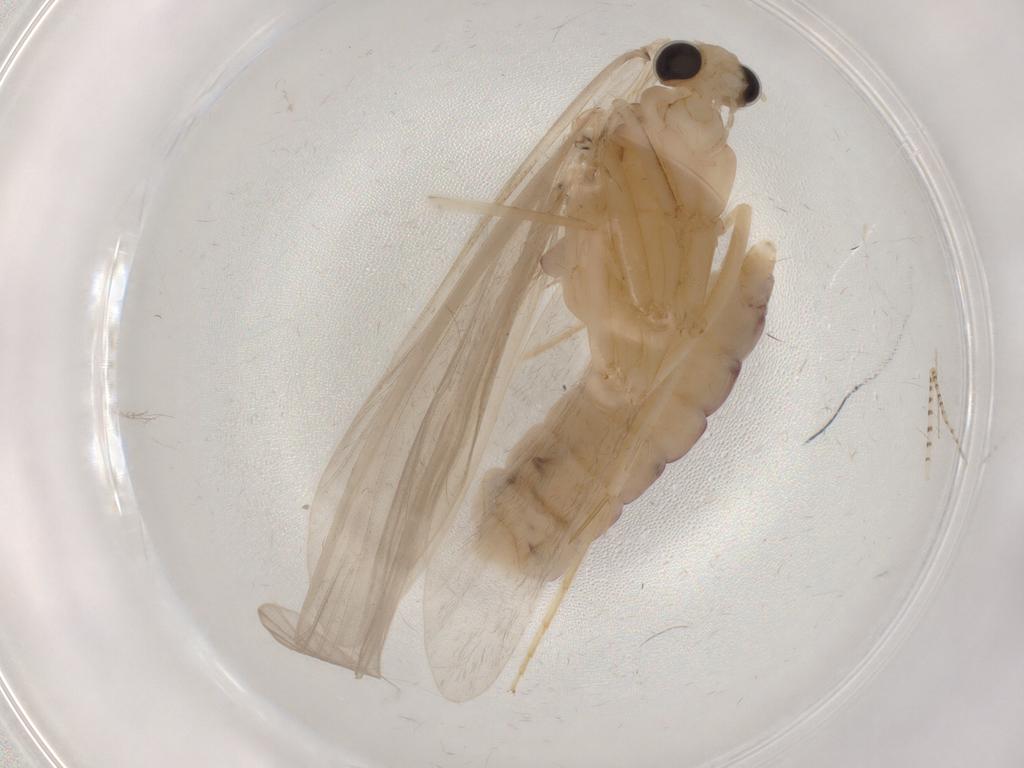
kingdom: Animalia
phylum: Arthropoda
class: Insecta
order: Trichoptera
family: Ecnomidae
